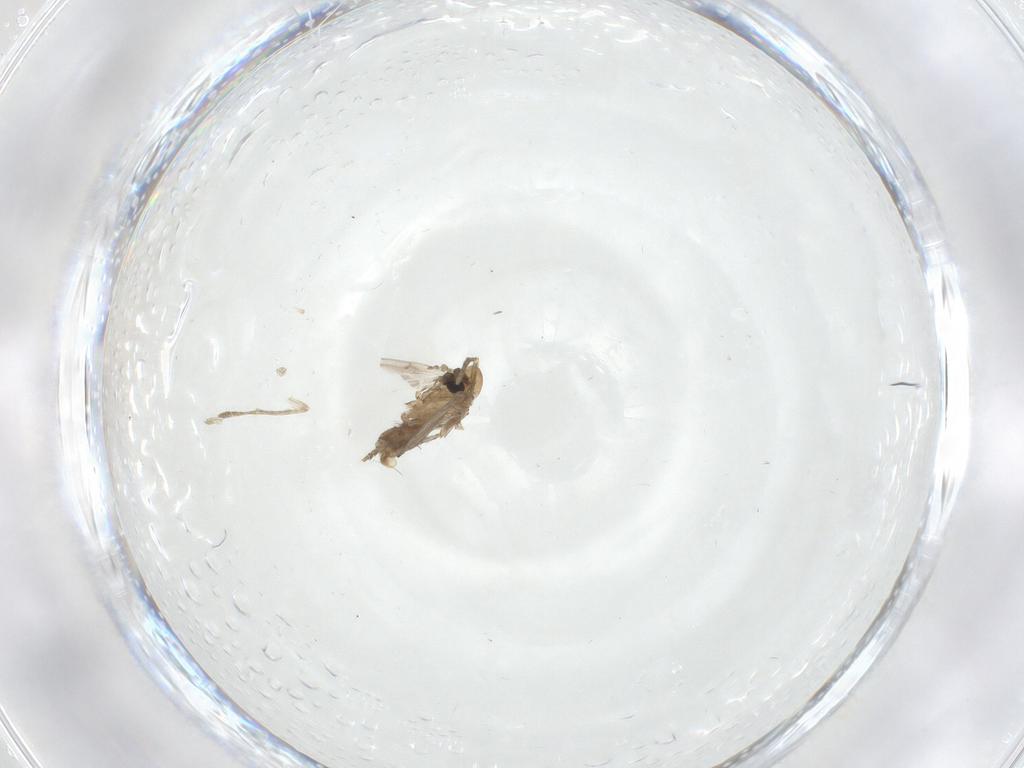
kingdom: Animalia
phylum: Arthropoda
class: Insecta
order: Diptera
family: Psychodidae
